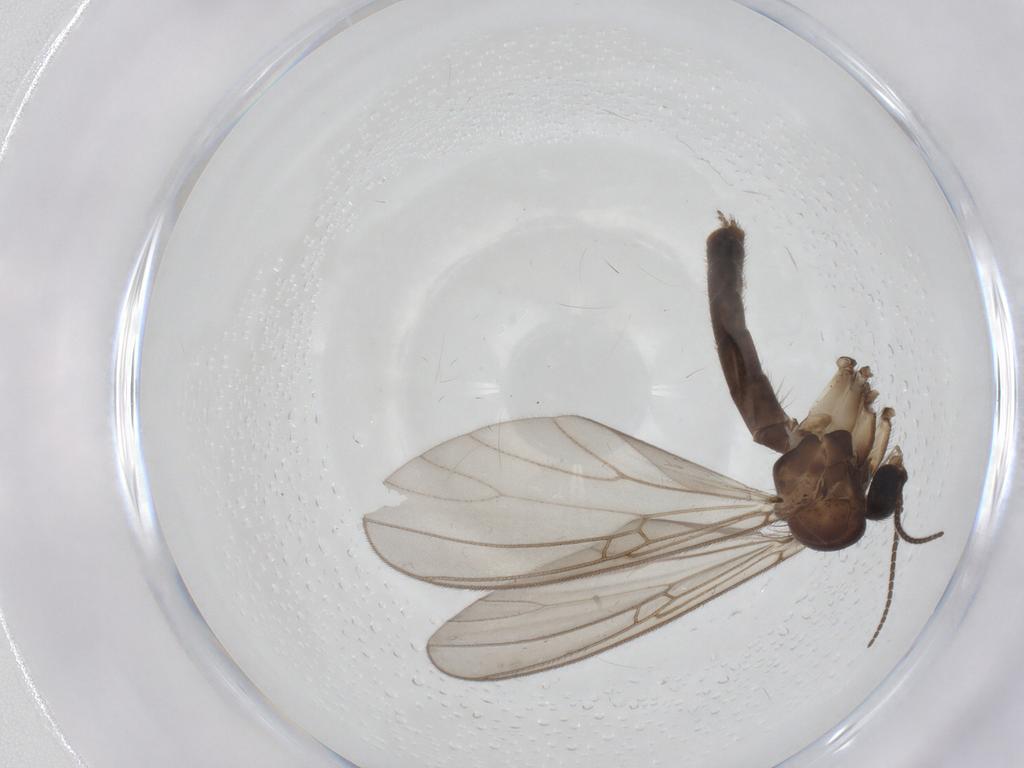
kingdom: Animalia
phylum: Arthropoda
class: Insecta
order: Diptera
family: Mycetophilidae
